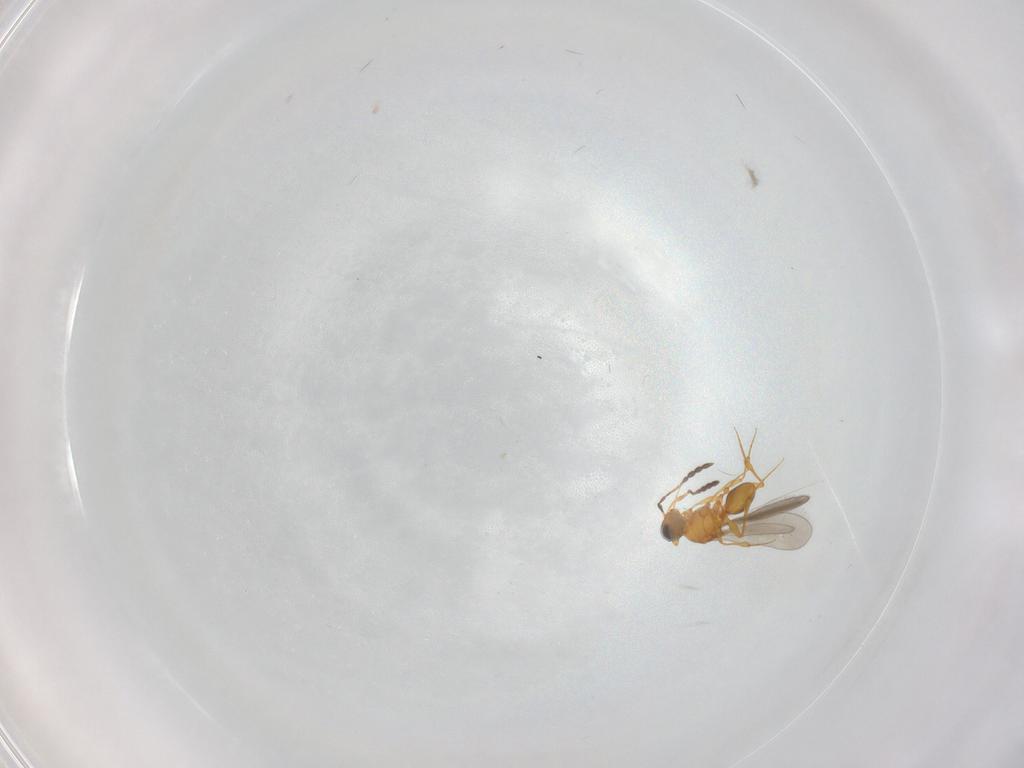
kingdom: Animalia
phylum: Arthropoda
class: Insecta
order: Hymenoptera
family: Platygastridae
